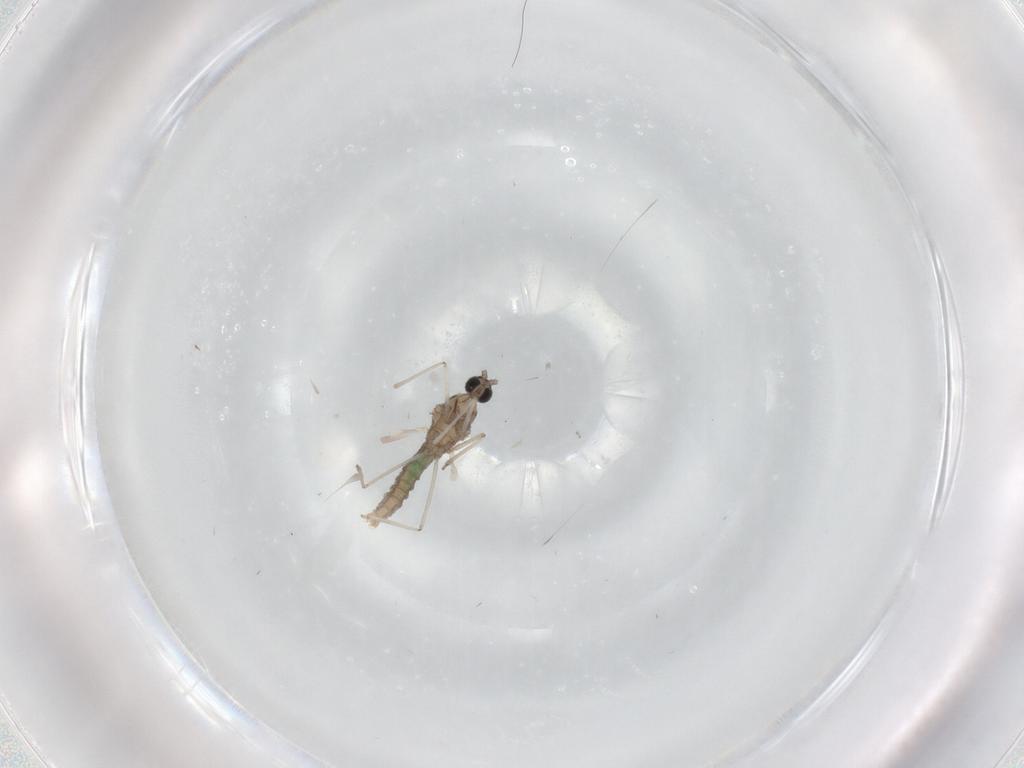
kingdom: Animalia
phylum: Arthropoda
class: Insecta
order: Diptera
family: Cecidomyiidae
